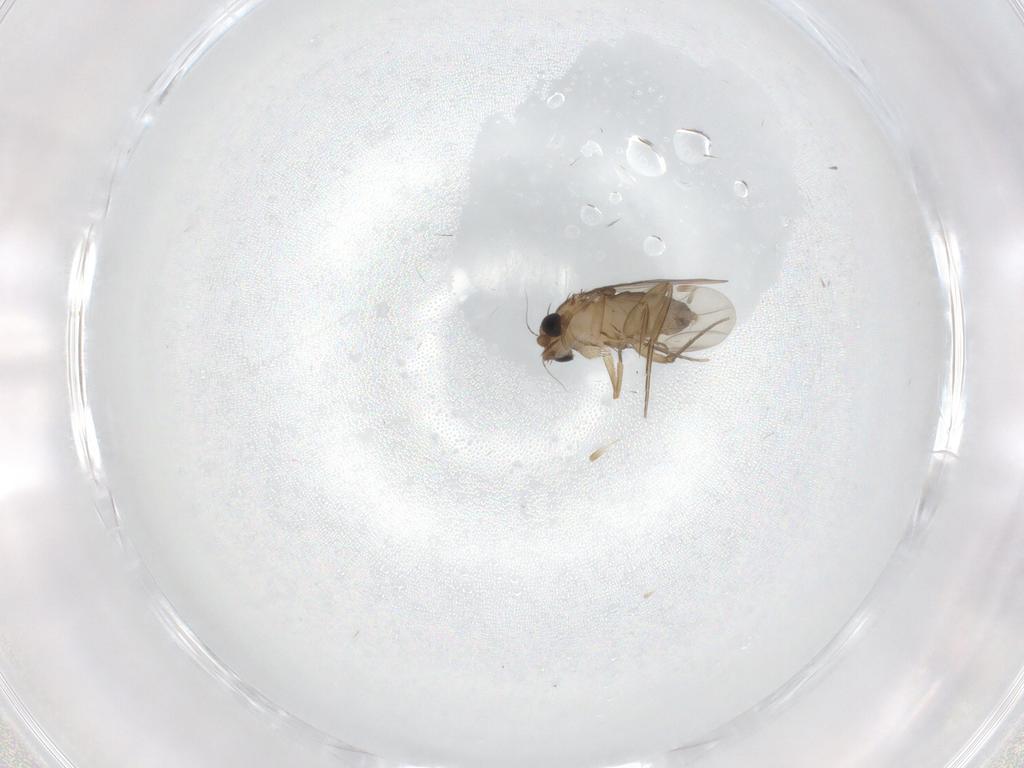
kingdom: Animalia
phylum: Arthropoda
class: Insecta
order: Diptera
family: Phoridae
